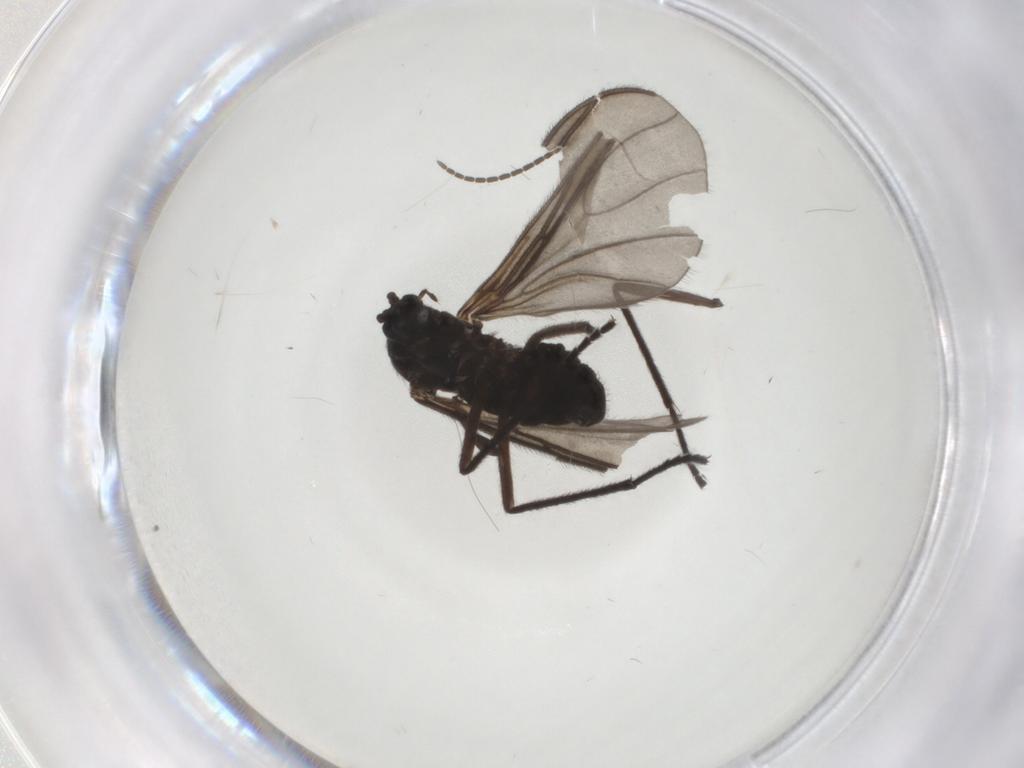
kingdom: Animalia
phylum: Arthropoda
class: Insecta
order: Diptera
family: Sciaridae
